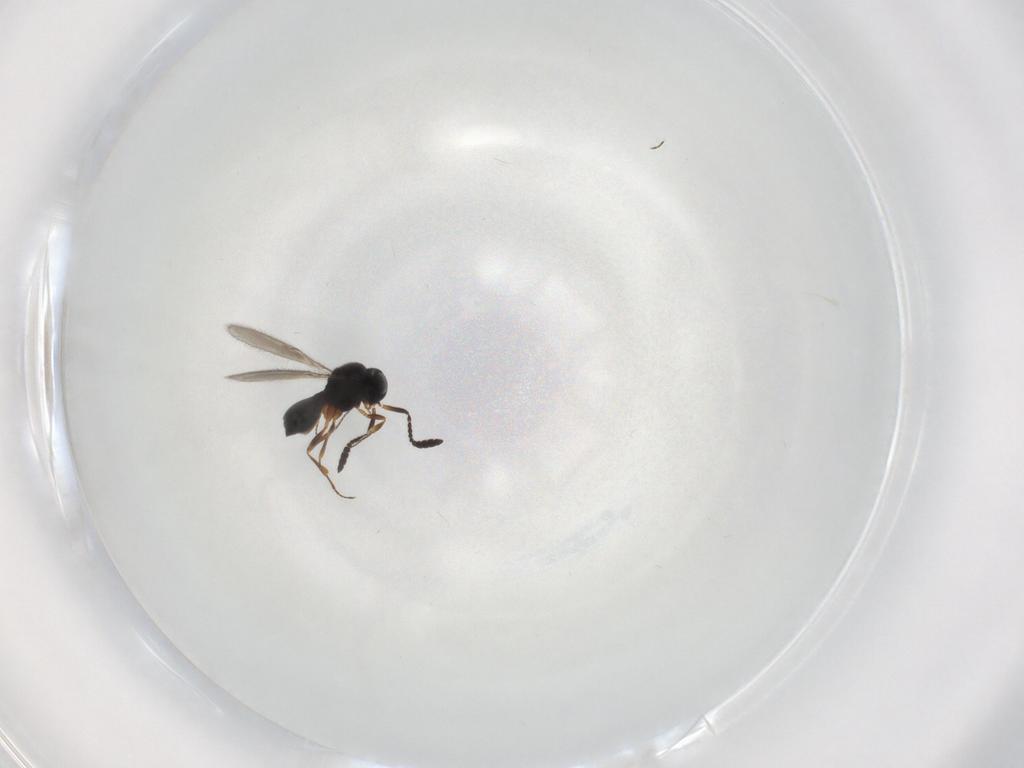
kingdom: Animalia
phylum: Arthropoda
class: Insecta
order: Hymenoptera
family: Scelionidae
